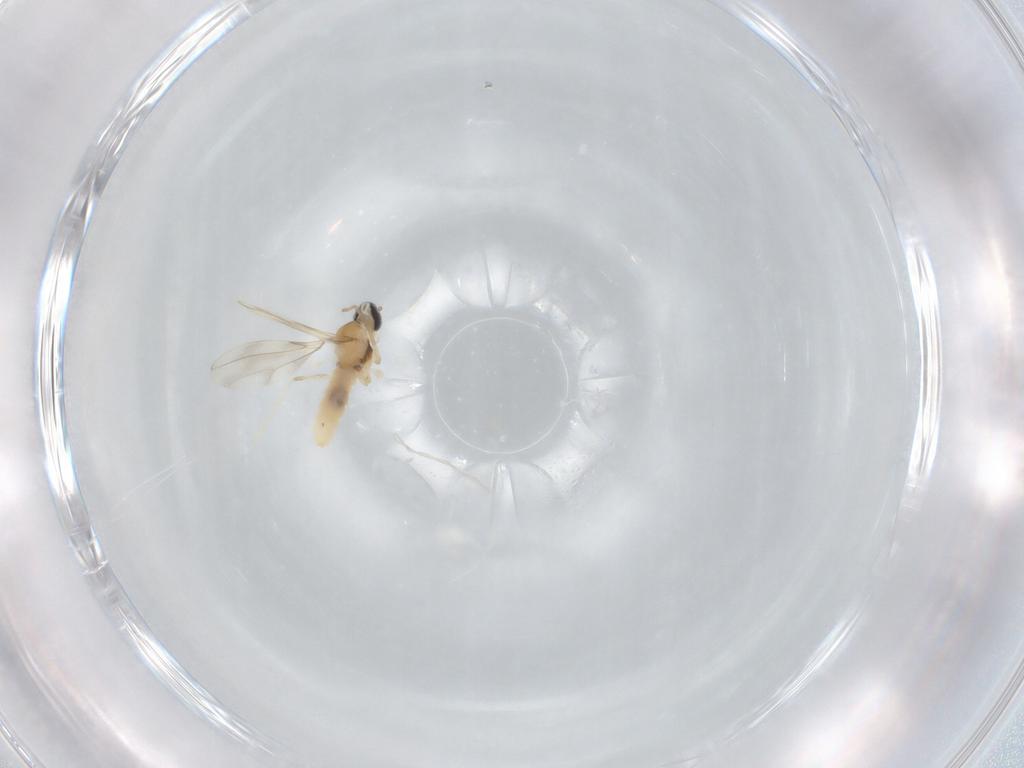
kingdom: Animalia
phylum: Arthropoda
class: Insecta
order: Diptera
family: Cecidomyiidae
